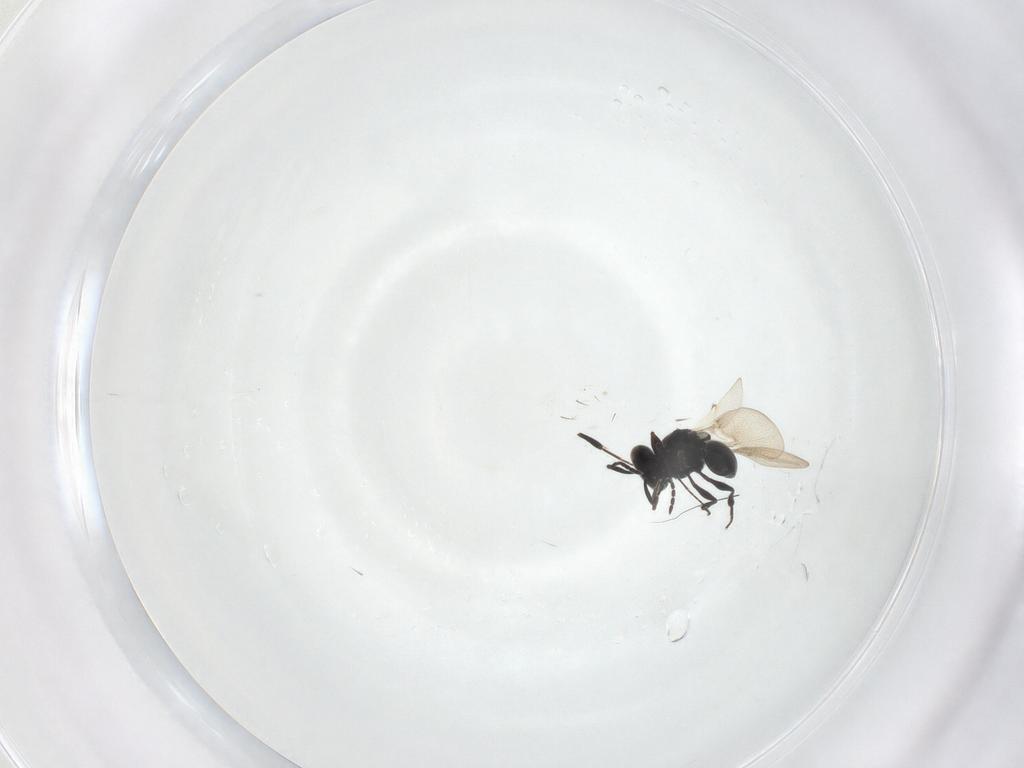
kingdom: Animalia
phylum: Arthropoda
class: Insecta
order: Hymenoptera
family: Platygastridae
